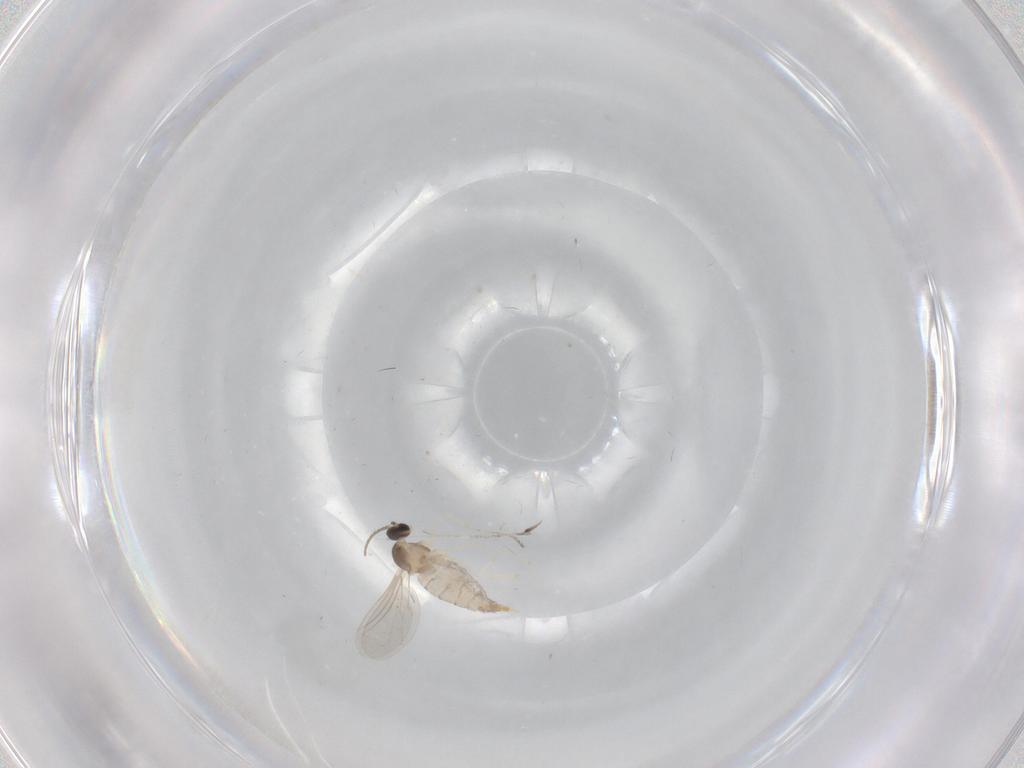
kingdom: Animalia
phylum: Arthropoda
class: Insecta
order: Diptera
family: Cecidomyiidae
